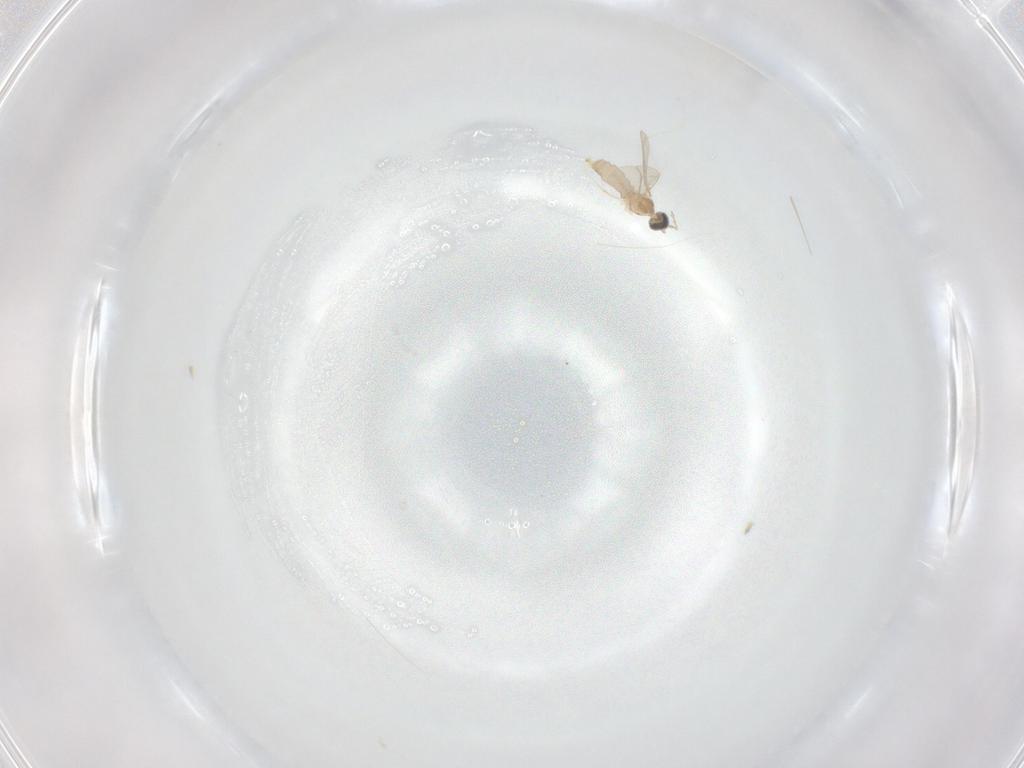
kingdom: Animalia
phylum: Arthropoda
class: Insecta
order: Diptera
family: Cecidomyiidae
